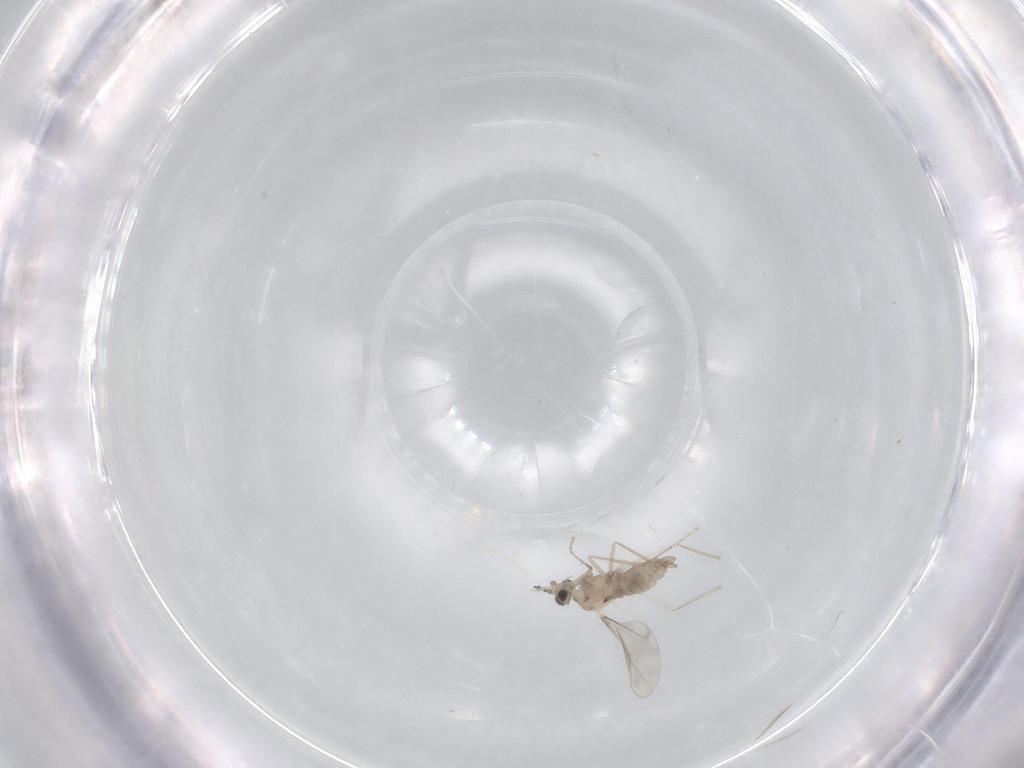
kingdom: Animalia
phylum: Arthropoda
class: Insecta
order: Diptera
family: Cecidomyiidae
